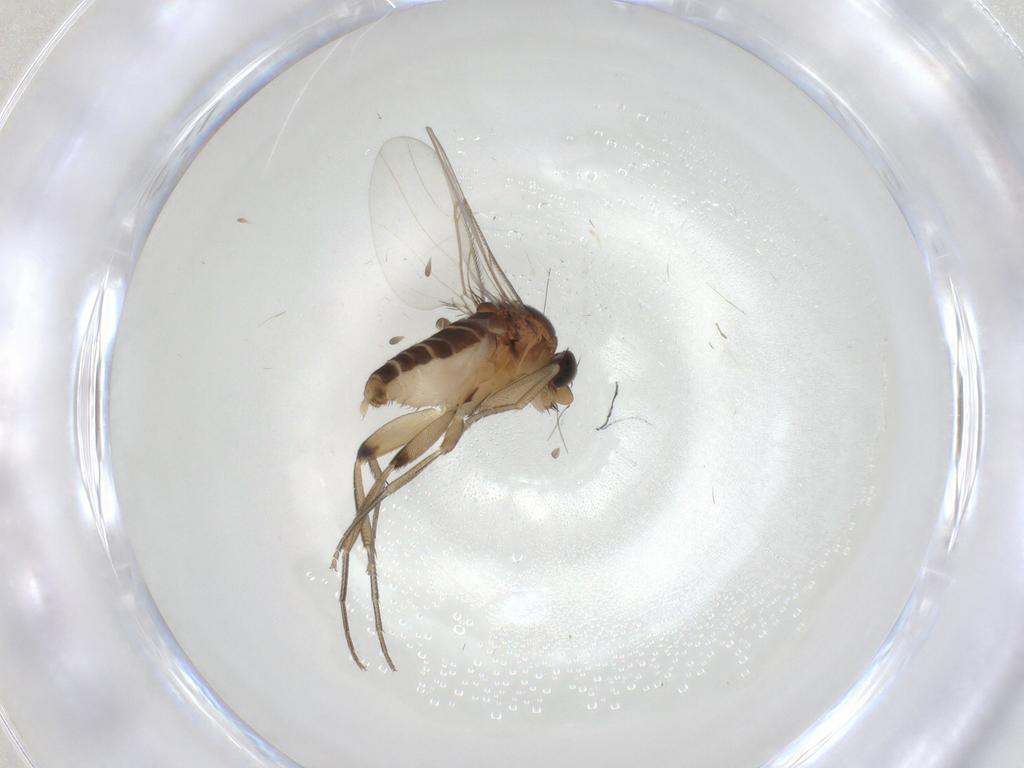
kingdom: Animalia
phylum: Arthropoda
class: Insecta
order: Diptera
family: Phoridae
